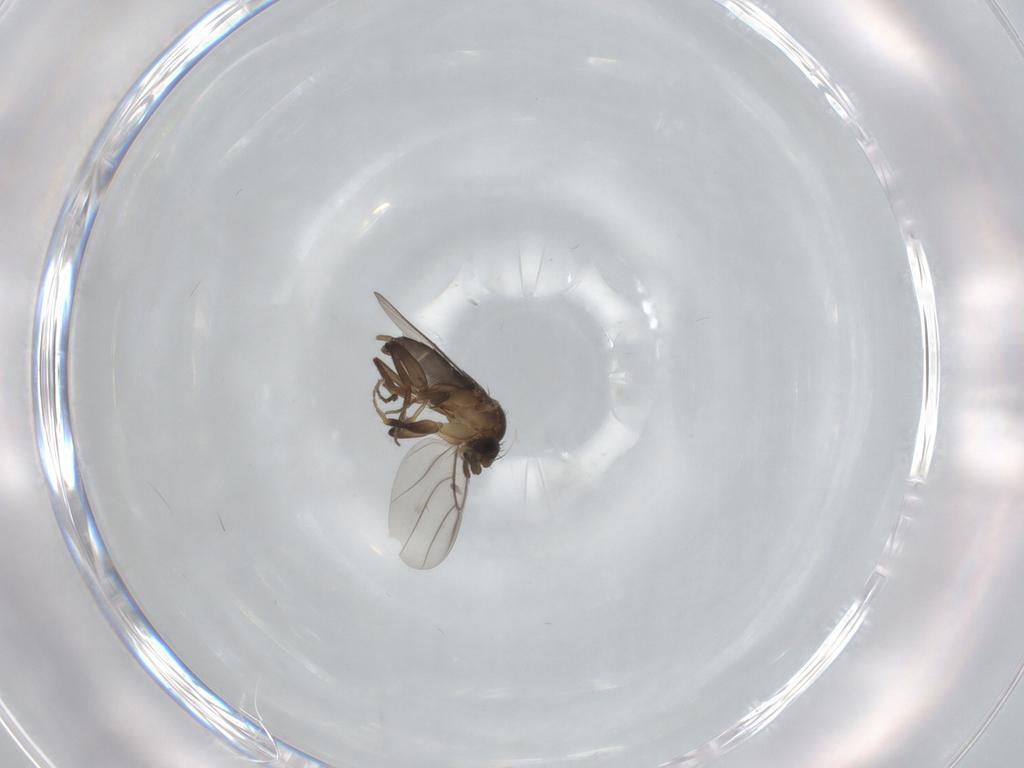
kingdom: Animalia
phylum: Arthropoda
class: Insecta
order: Diptera
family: Phoridae
